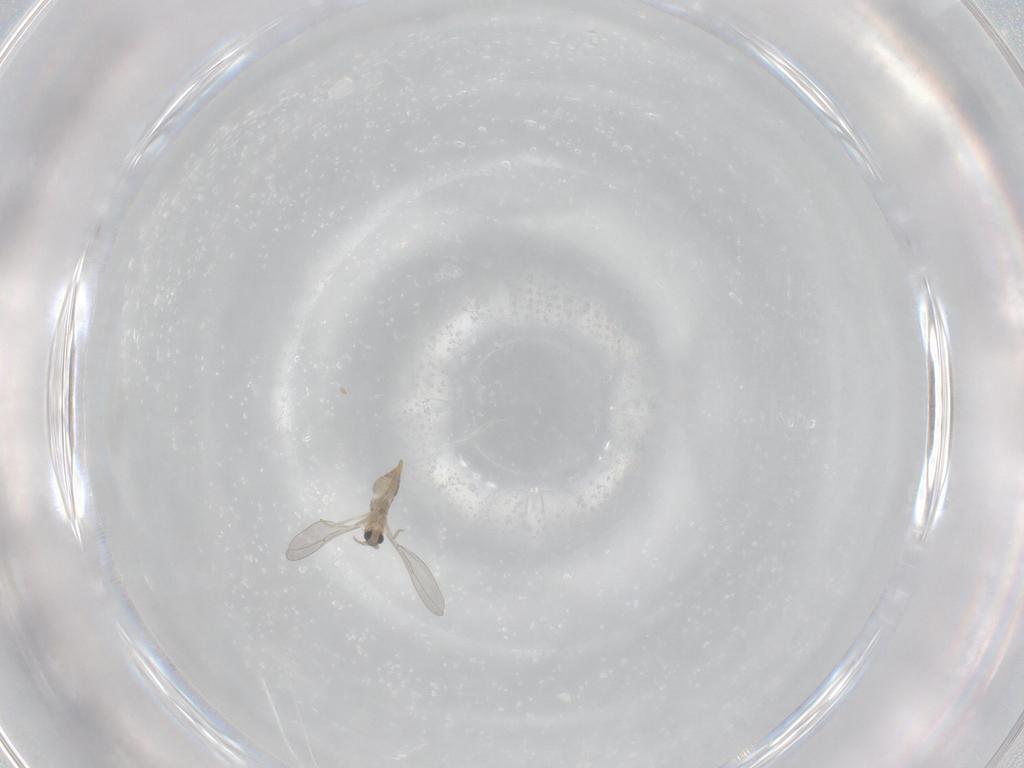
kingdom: Animalia
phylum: Arthropoda
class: Insecta
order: Diptera
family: Cecidomyiidae
